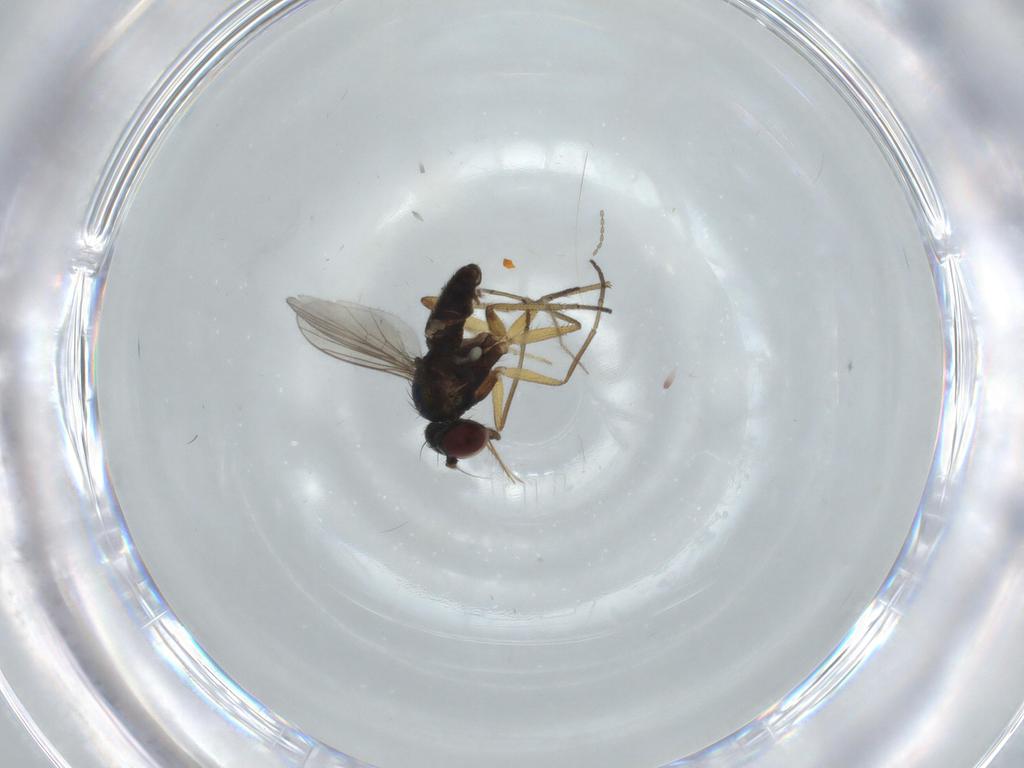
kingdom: Animalia
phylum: Arthropoda
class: Insecta
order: Diptera
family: Dolichopodidae
